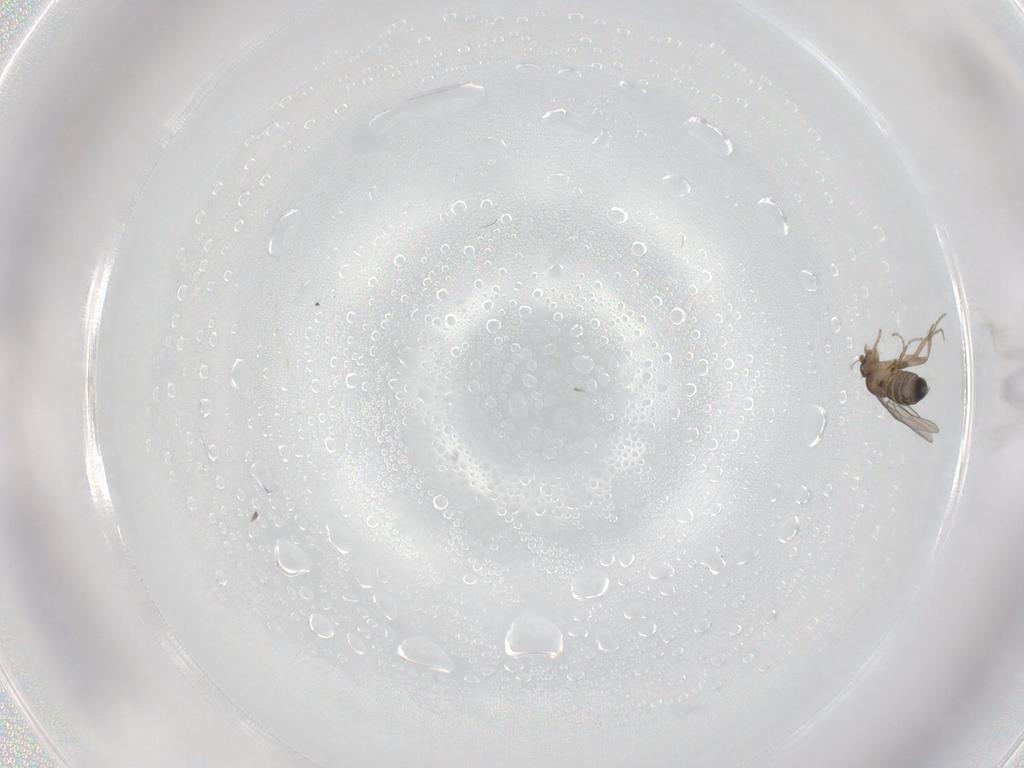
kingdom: Animalia
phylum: Arthropoda
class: Insecta
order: Diptera
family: Phoridae
